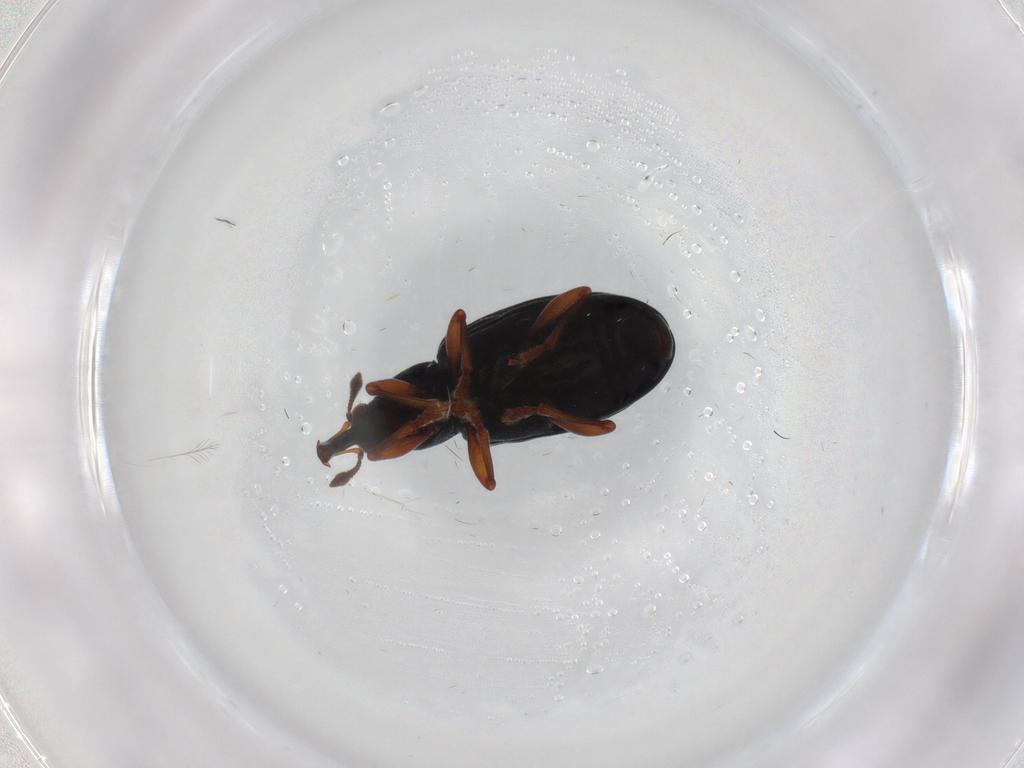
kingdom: Animalia
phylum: Arthropoda
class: Insecta
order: Coleoptera
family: Curculionidae
